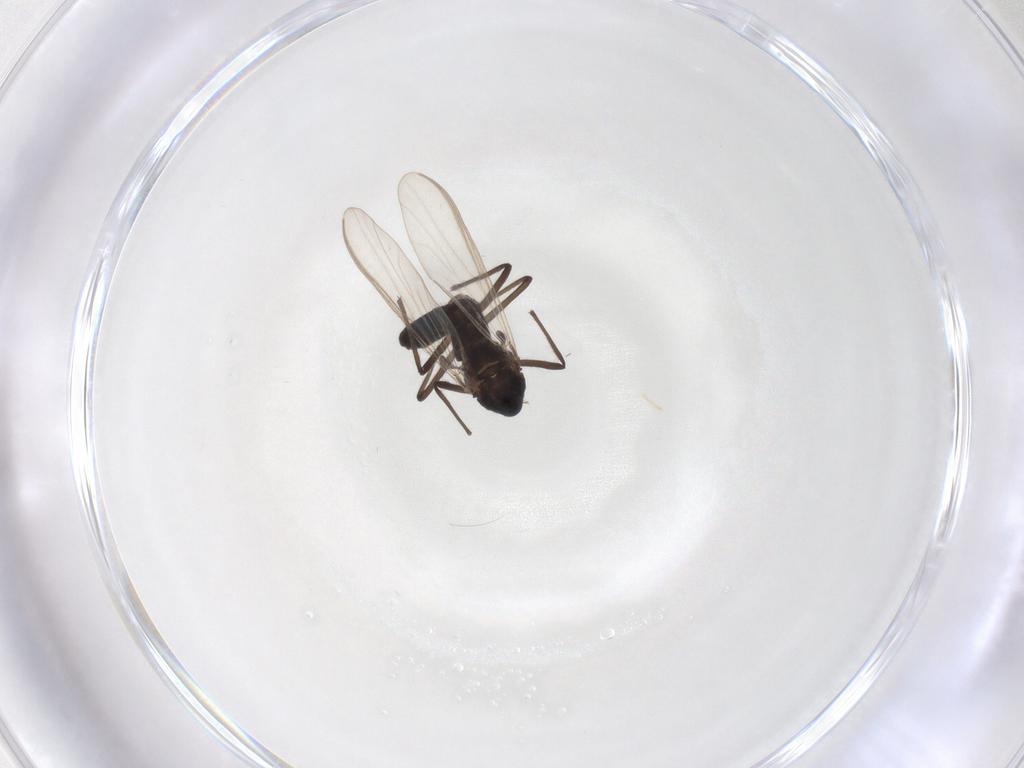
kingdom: Animalia
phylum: Arthropoda
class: Insecta
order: Diptera
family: Chironomidae
